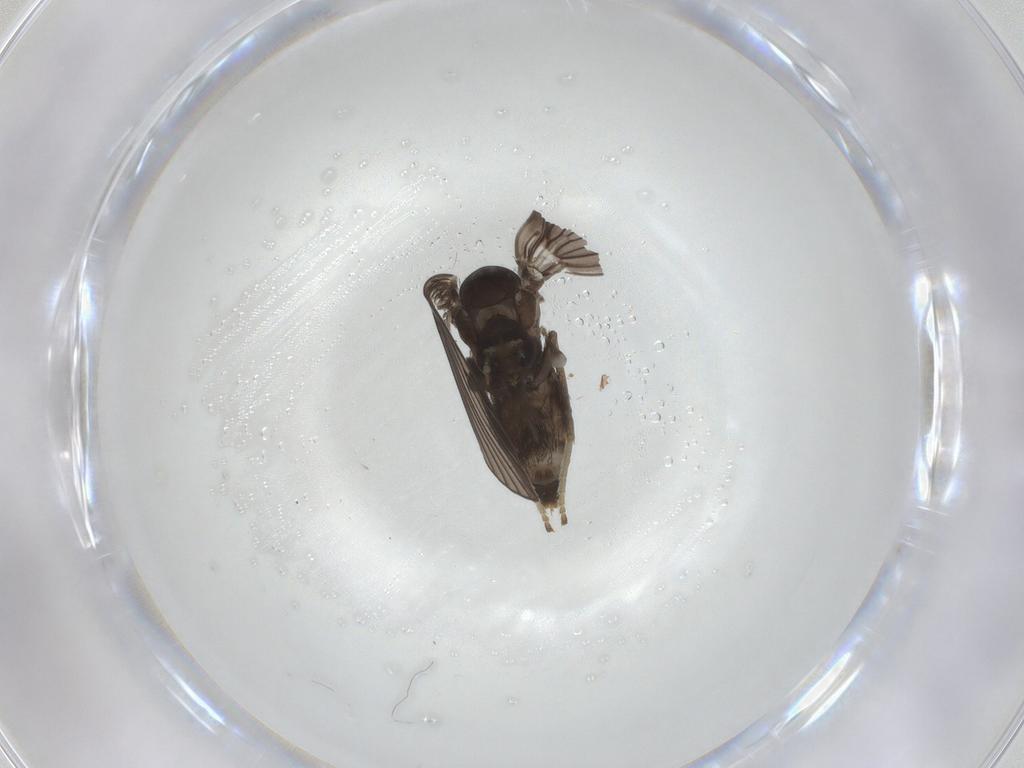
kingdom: Animalia
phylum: Arthropoda
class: Insecta
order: Diptera
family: Psychodidae
